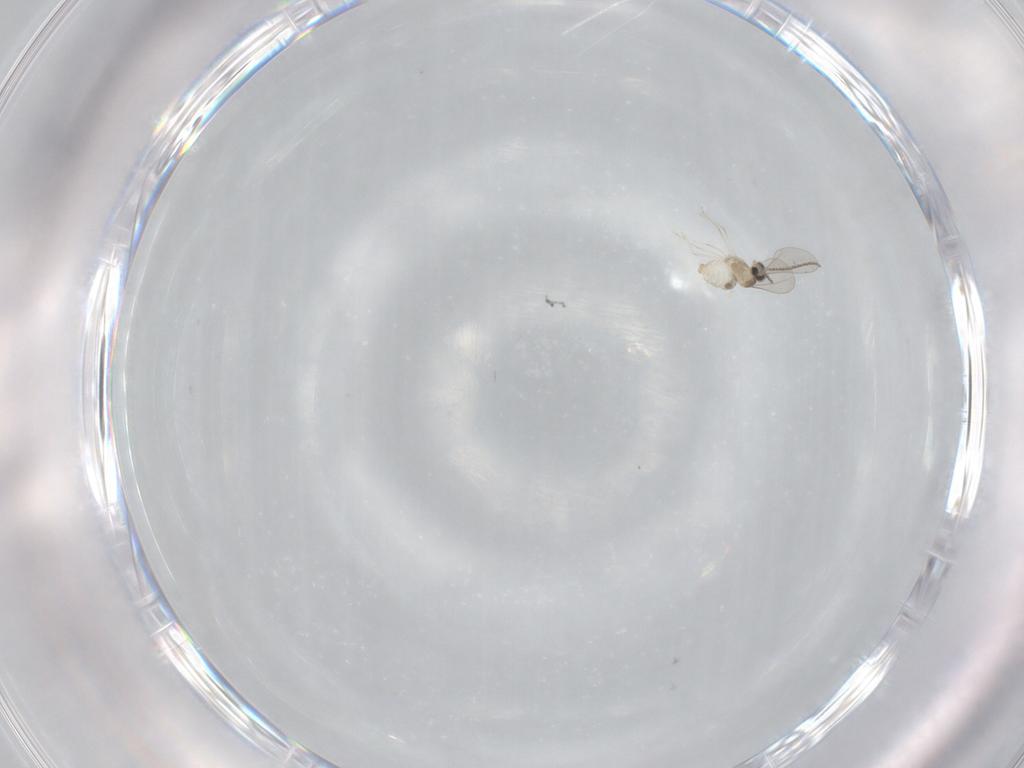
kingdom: Animalia
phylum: Arthropoda
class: Insecta
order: Diptera
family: Cecidomyiidae
